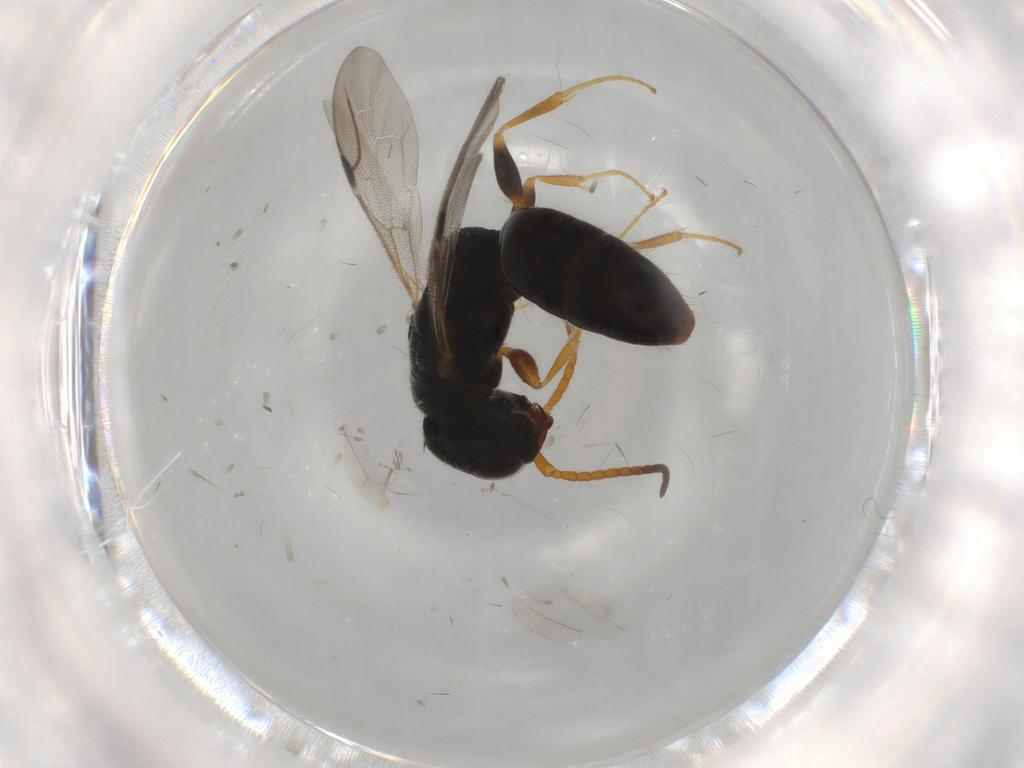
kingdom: Animalia
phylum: Arthropoda
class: Insecta
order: Hymenoptera
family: Bethylidae
